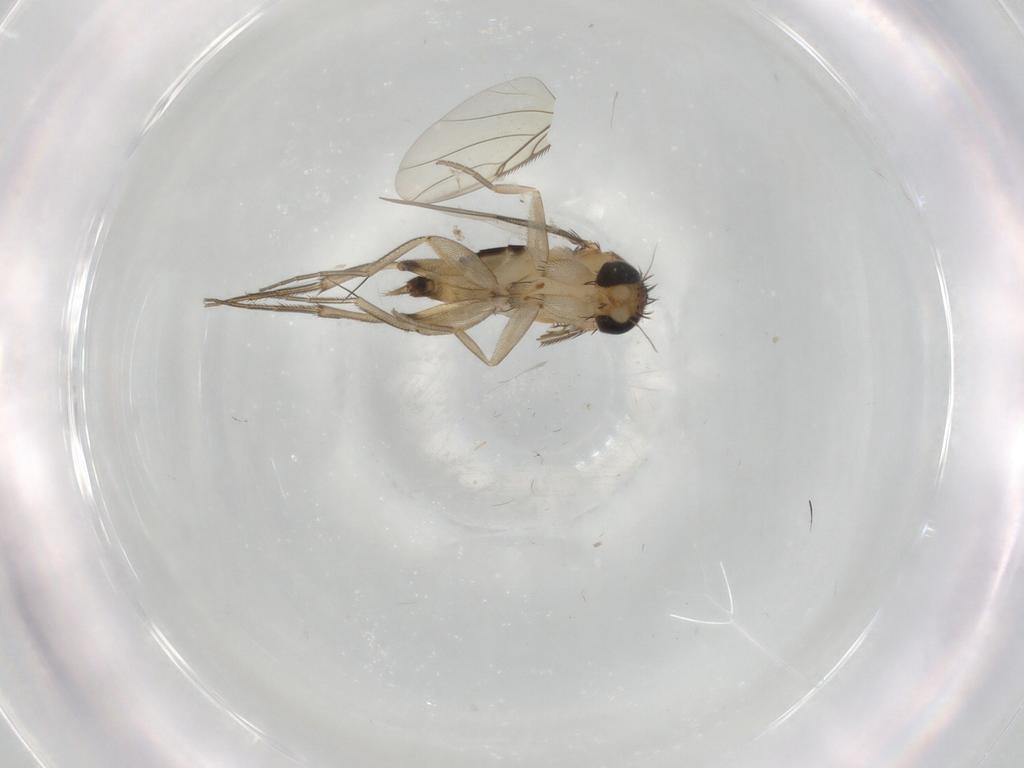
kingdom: Animalia
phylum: Arthropoda
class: Insecta
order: Diptera
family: Phoridae
